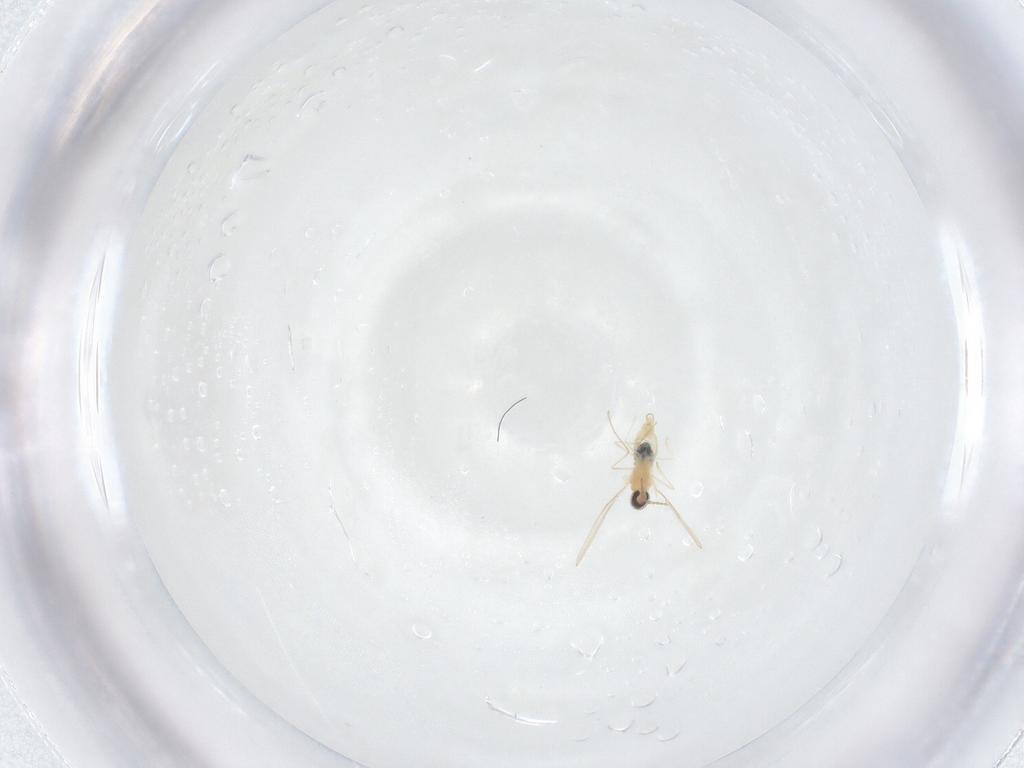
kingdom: Animalia
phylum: Arthropoda
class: Insecta
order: Diptera
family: Cecidomyiidae
